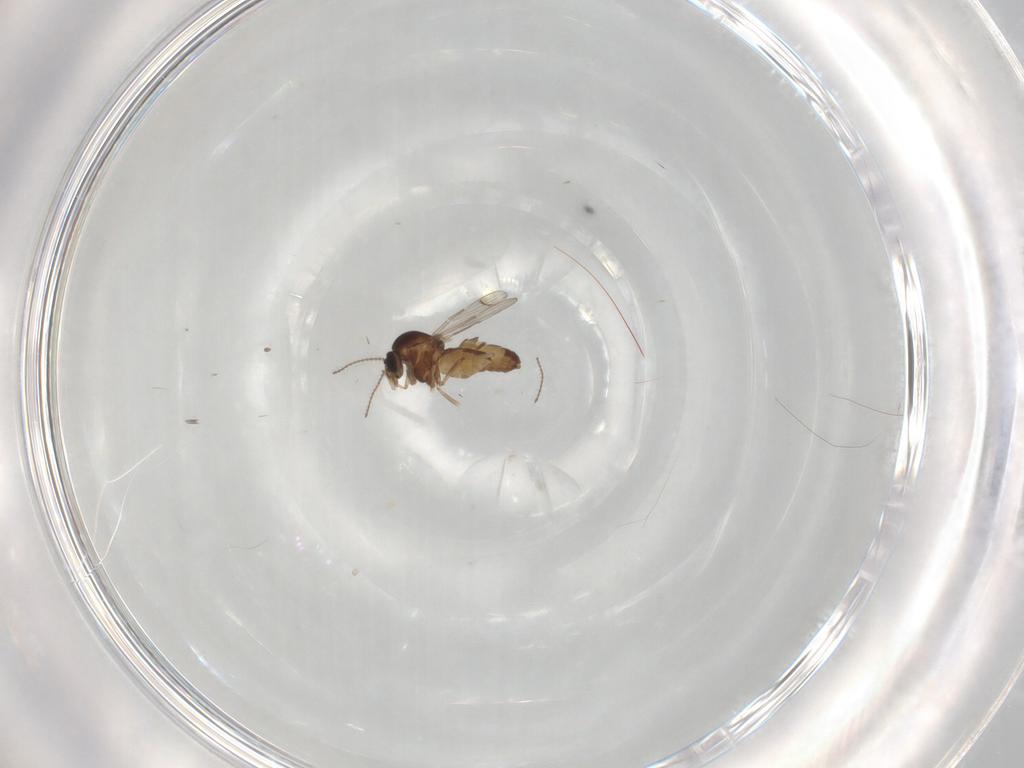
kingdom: Animalia
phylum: Arthropoda
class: Insecta
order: Diptera
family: Ceratopogonidae
